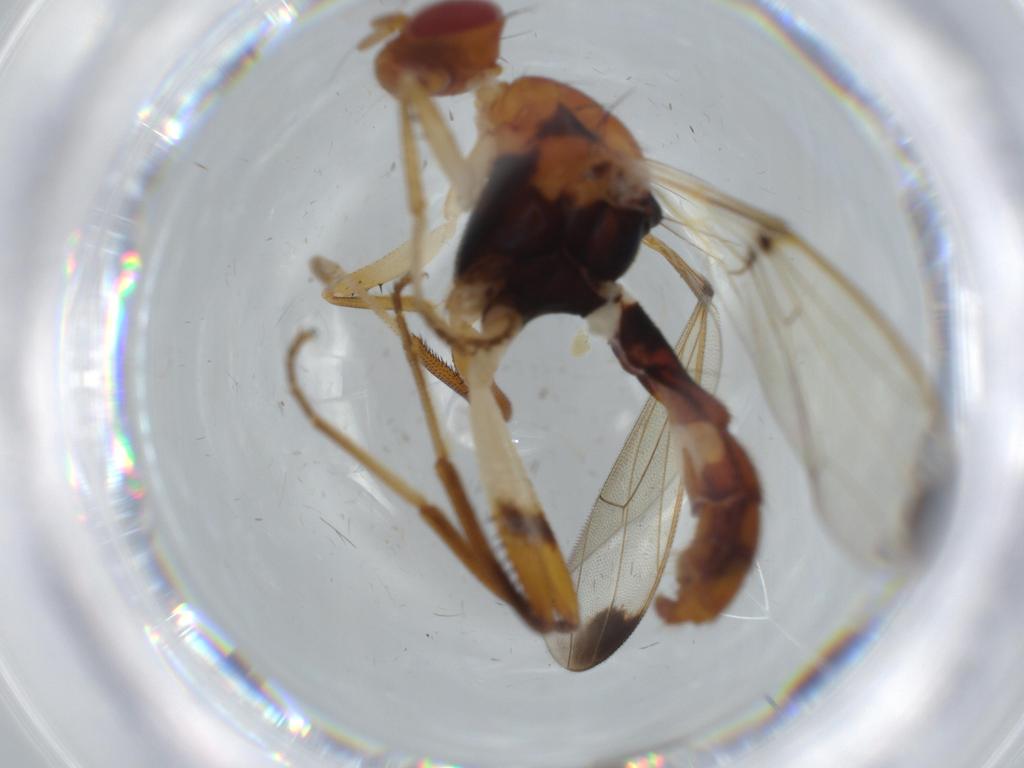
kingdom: Animalia
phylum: Arthropoda
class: Insecta
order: Diptera
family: Richardiidae
